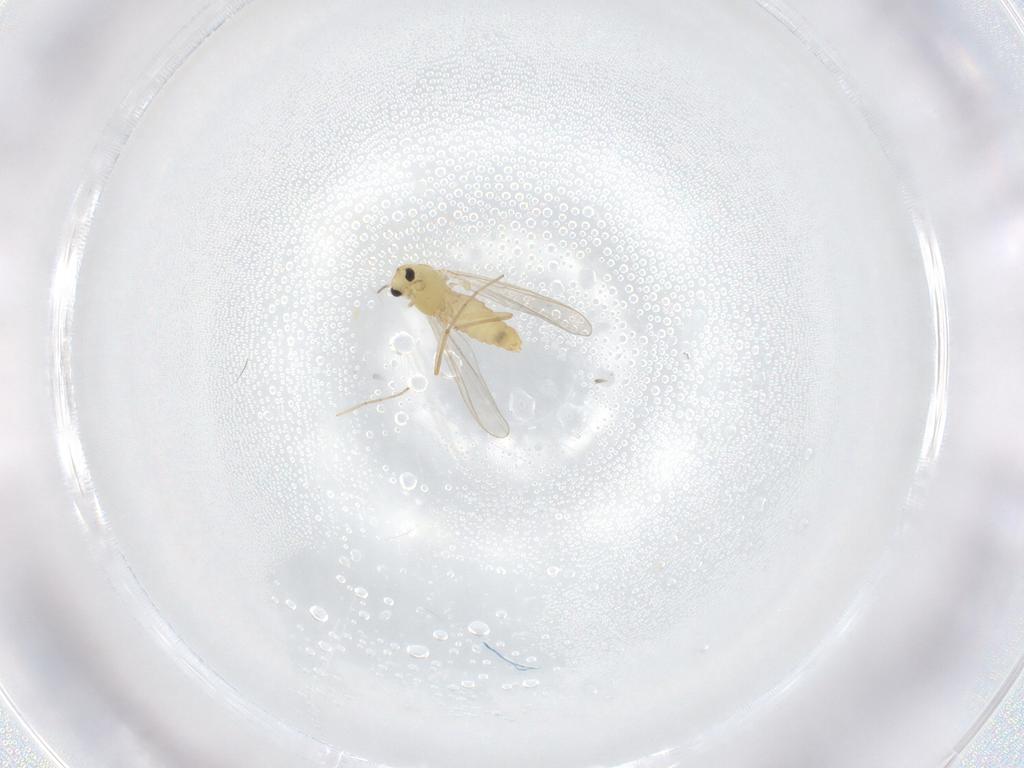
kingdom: Animalia
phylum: Arthropoda
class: Insecta
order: Diptera
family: Chironomidae
